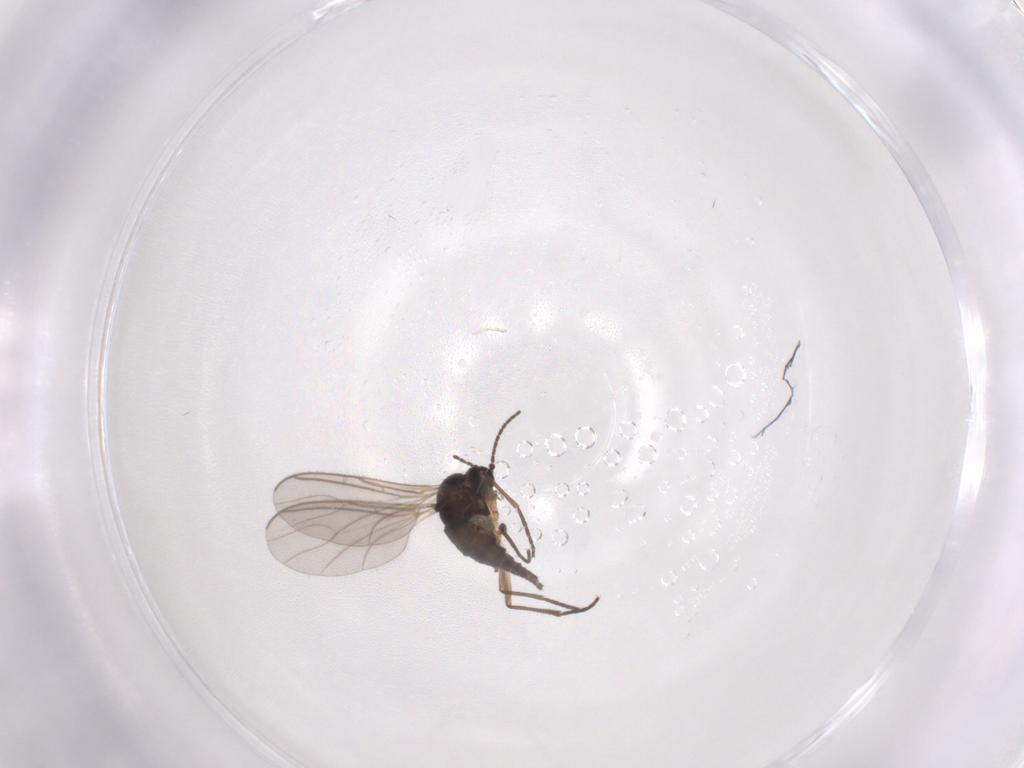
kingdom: Animalia
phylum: Arthropoda
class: Insecta
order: Diptera
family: Sciaridae
